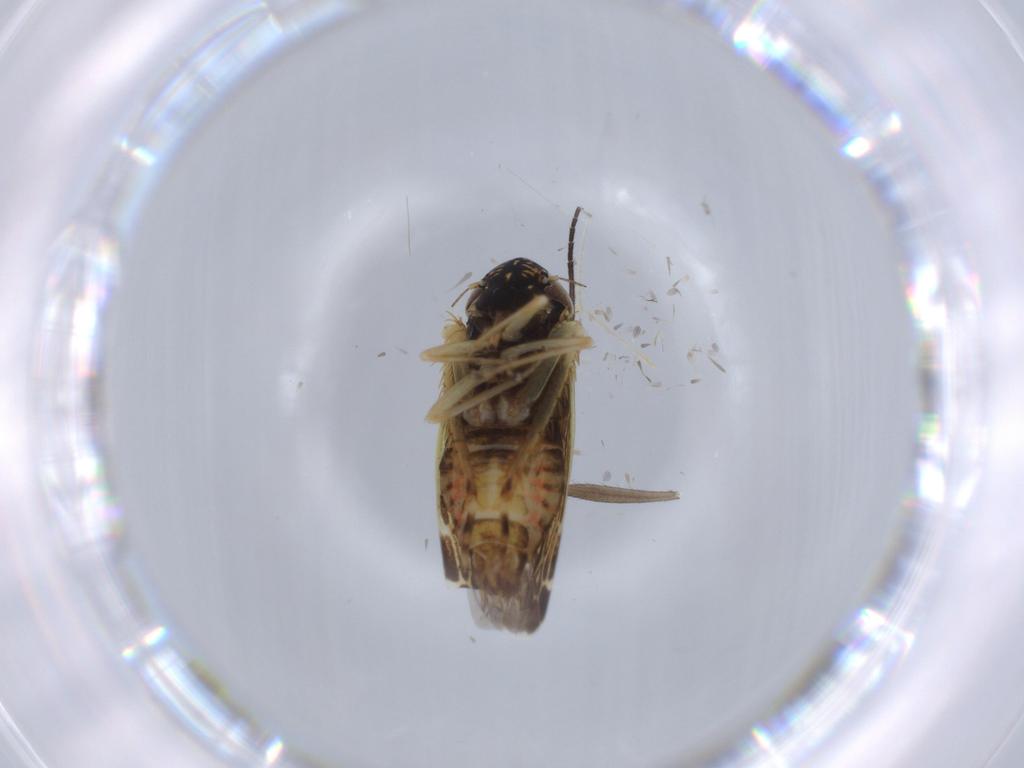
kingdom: Animalia
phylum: Arthropoda
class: Insecta
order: Hemiptera
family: Cicadellidae
